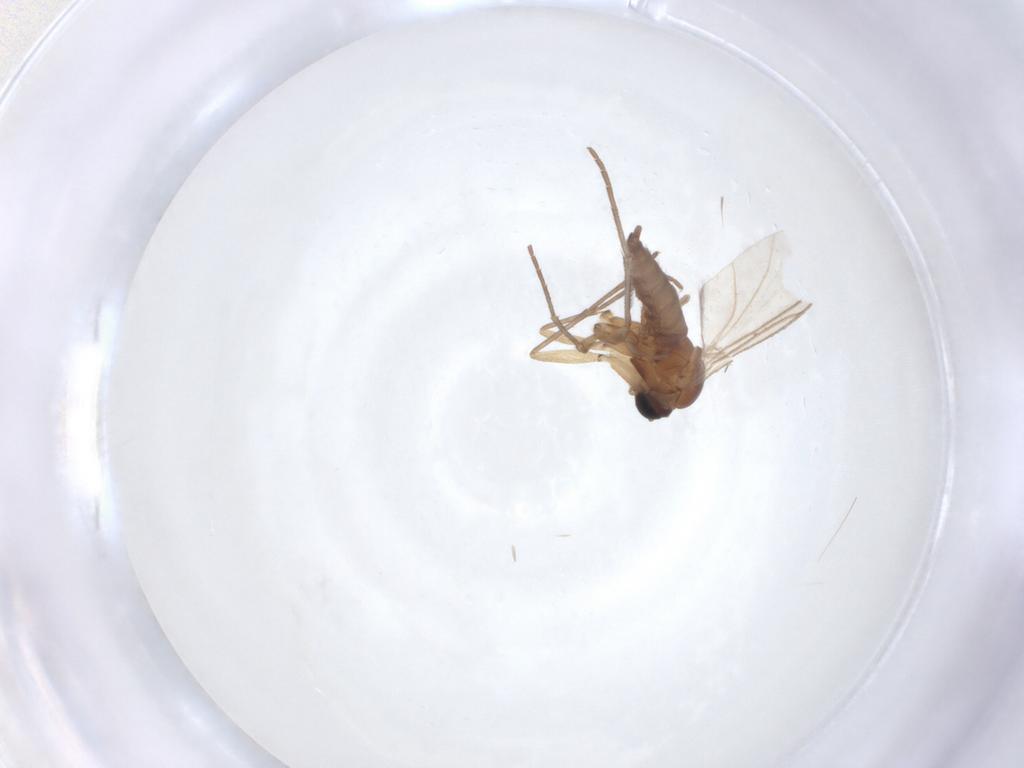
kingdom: Animalia
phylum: Arthropoda
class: Insecta
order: Diptera
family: Sciaridae
